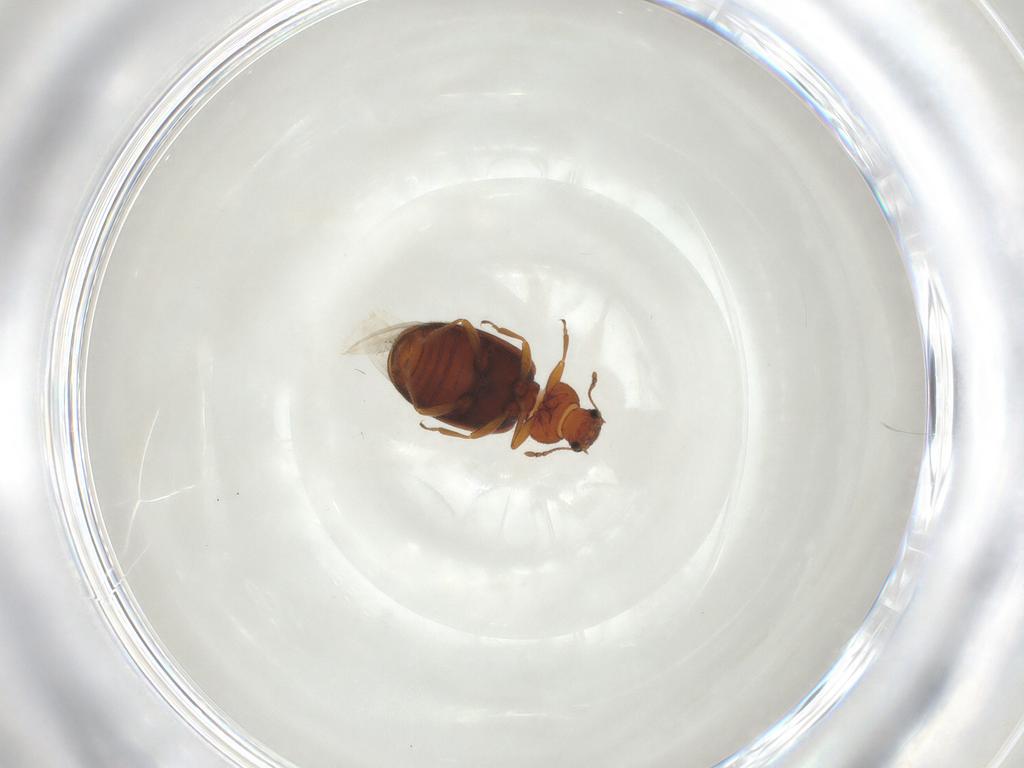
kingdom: Animalia
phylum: Arthropoda
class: Insecta
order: Coleoptera
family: Latridiidae
